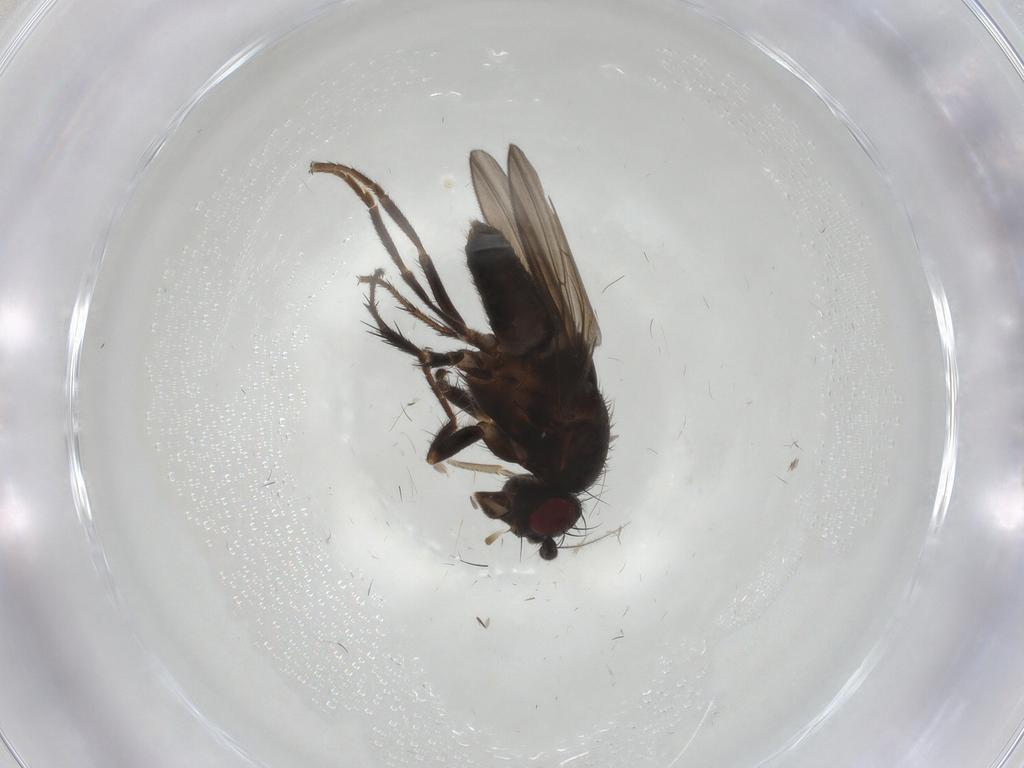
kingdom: Animalia
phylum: Arthropoda
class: Insecta
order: Diptera
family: Sphaeroceridae
